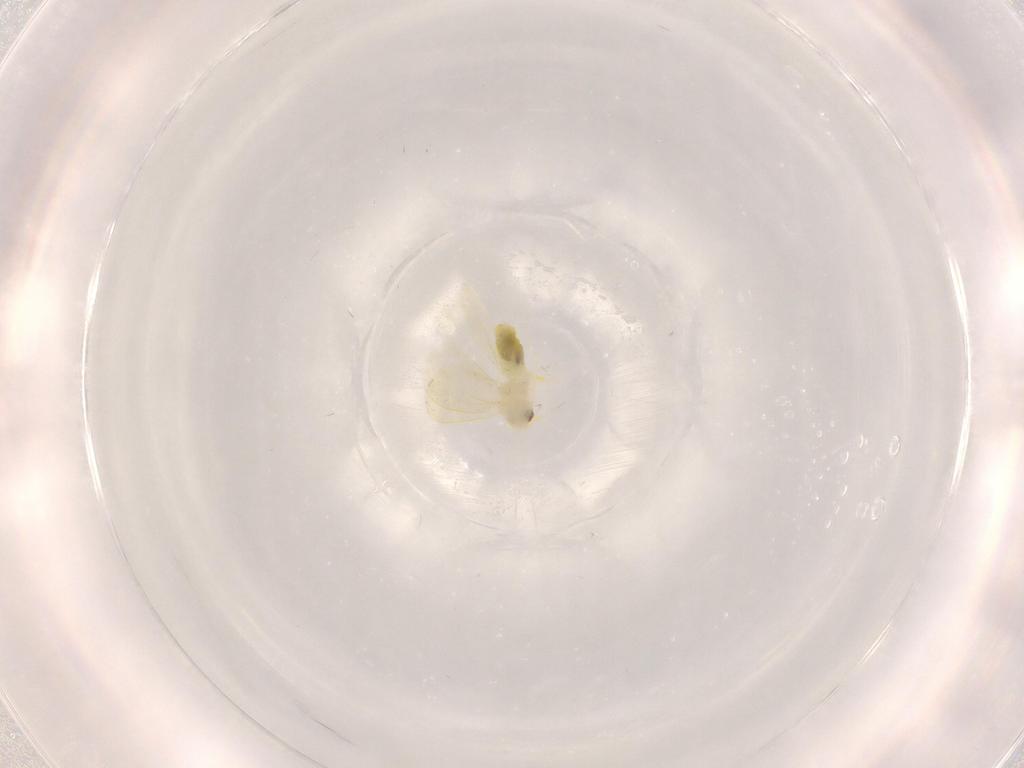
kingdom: Animalia
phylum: Arthropoda
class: Insecta
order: Hemiptera
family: Aleyrodidae
